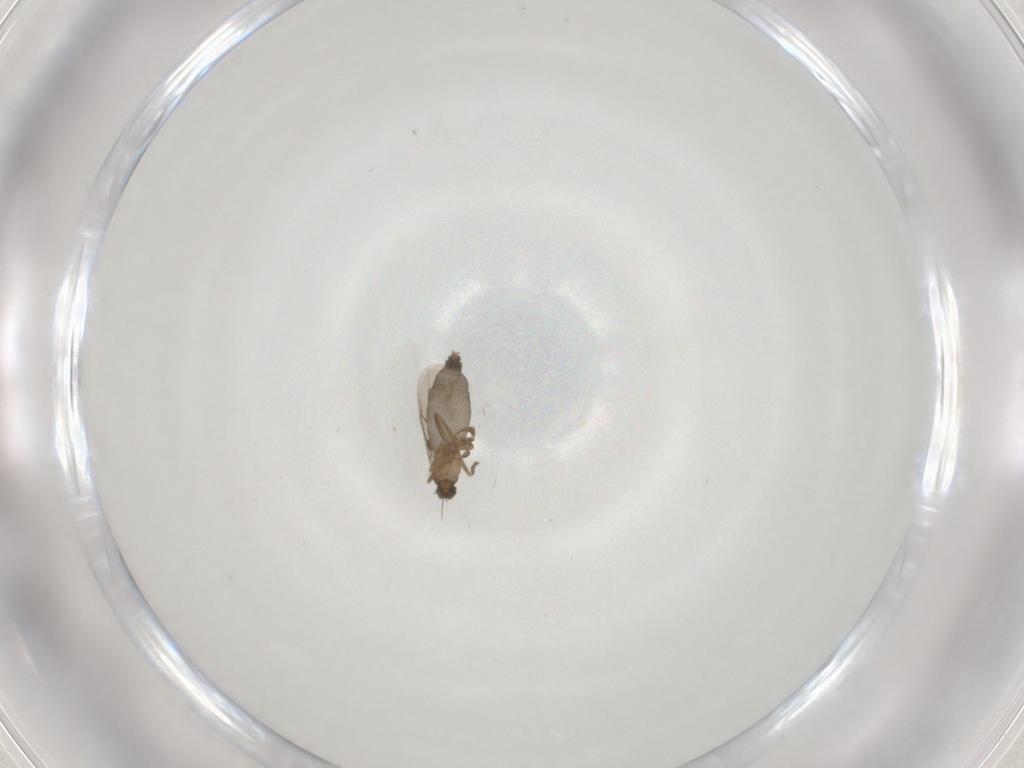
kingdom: Animalia
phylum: Arthropoda
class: Insecta
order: Diptera
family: Phoridae
